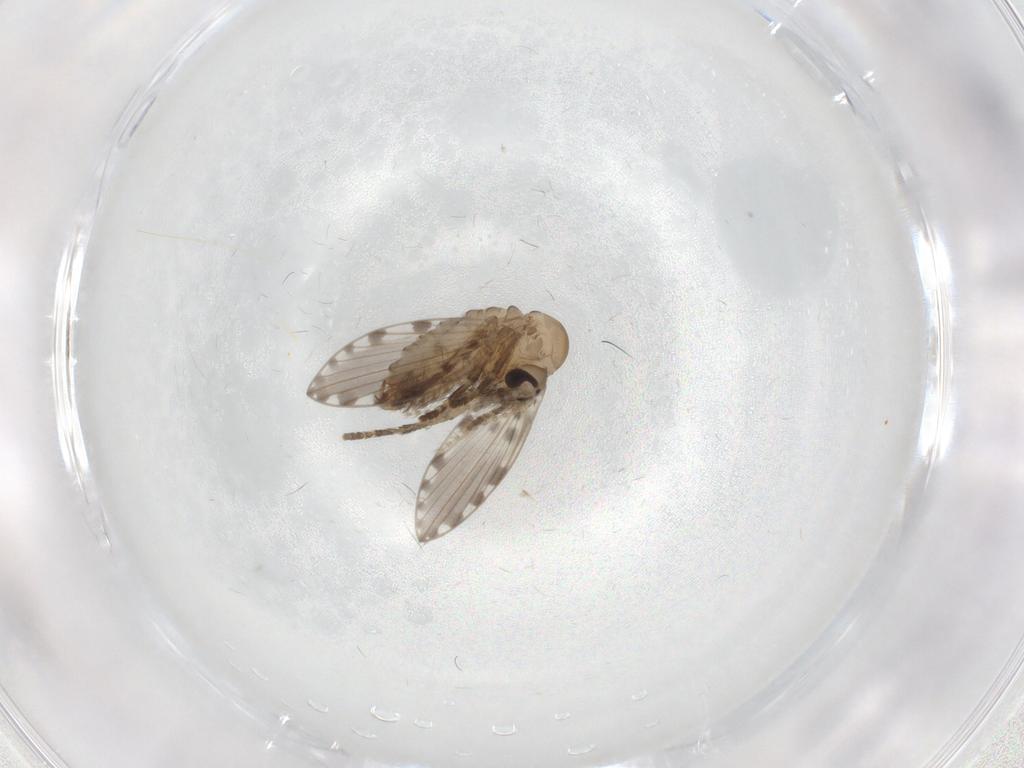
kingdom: Animalia
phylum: Arthropoda
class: Insecta
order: Diptera
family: Psychodidae
